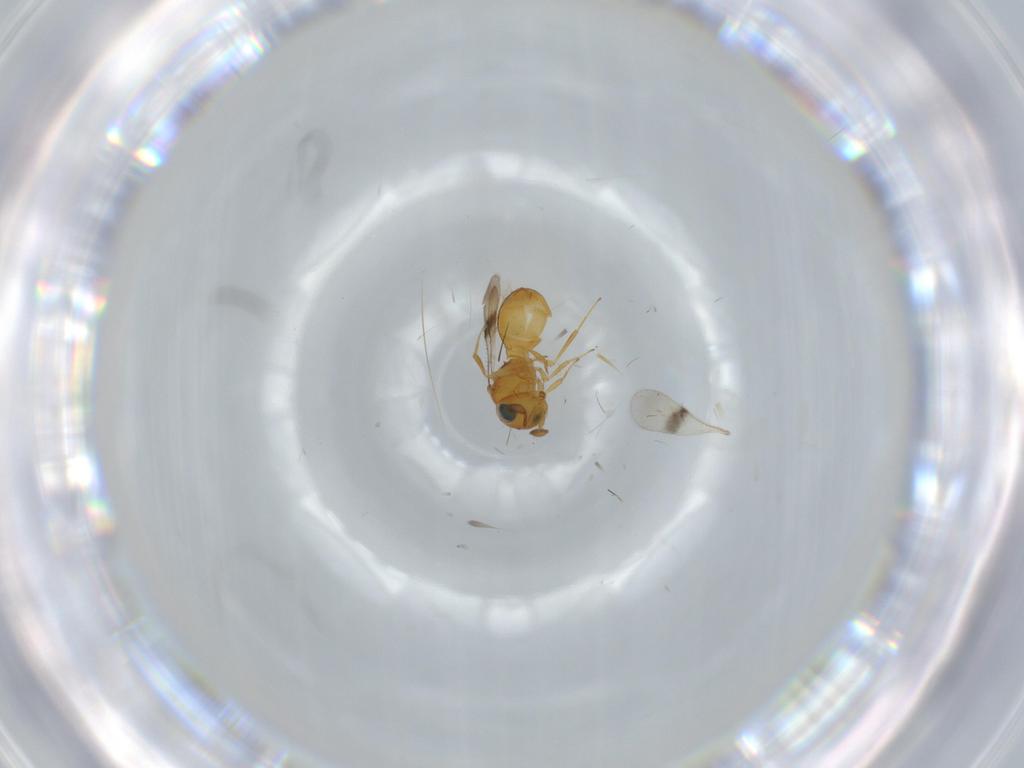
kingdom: Animalia
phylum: Arthropoda
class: Insecta
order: Hymenoptera
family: Scelionidae
